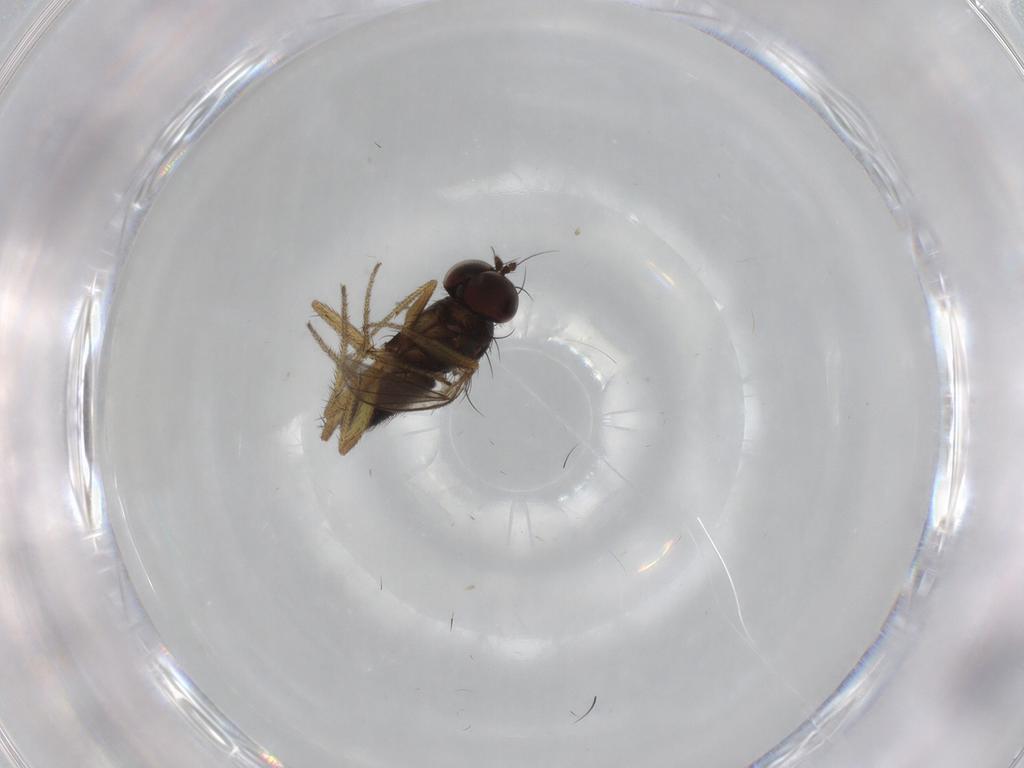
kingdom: Animalia
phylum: Arthropoda
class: Insecta
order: Diptera
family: Dolichopodidae
